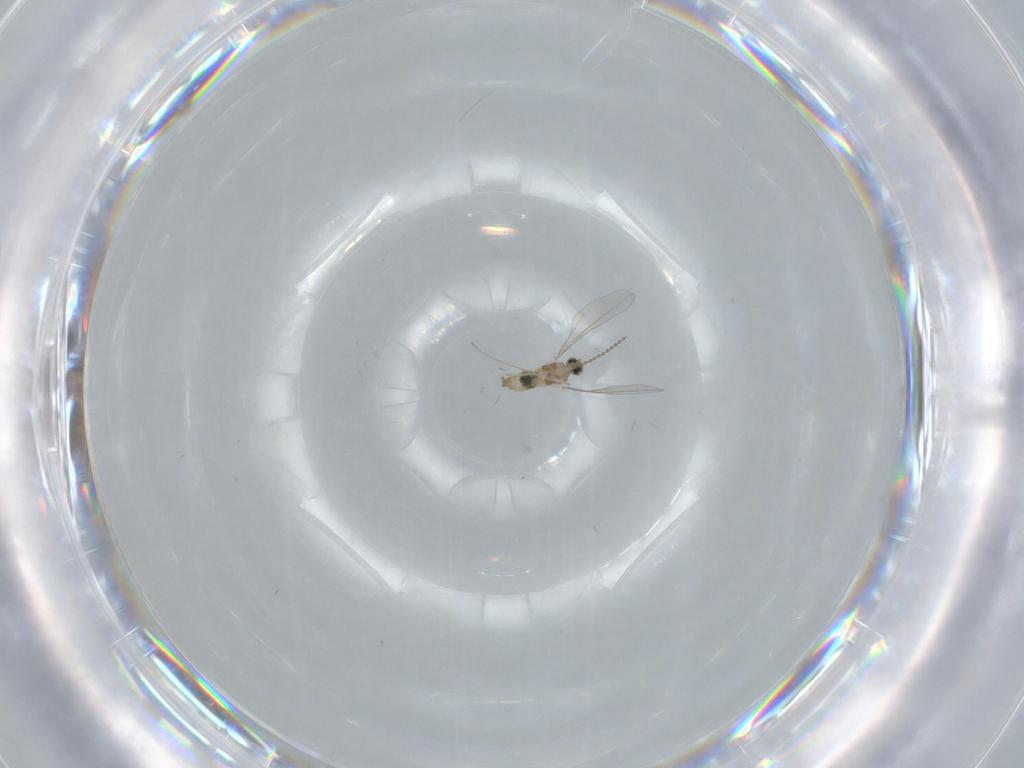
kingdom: Animalia
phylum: Arthropoda
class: Insecta
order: Diptera
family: Cecidomyiidae
